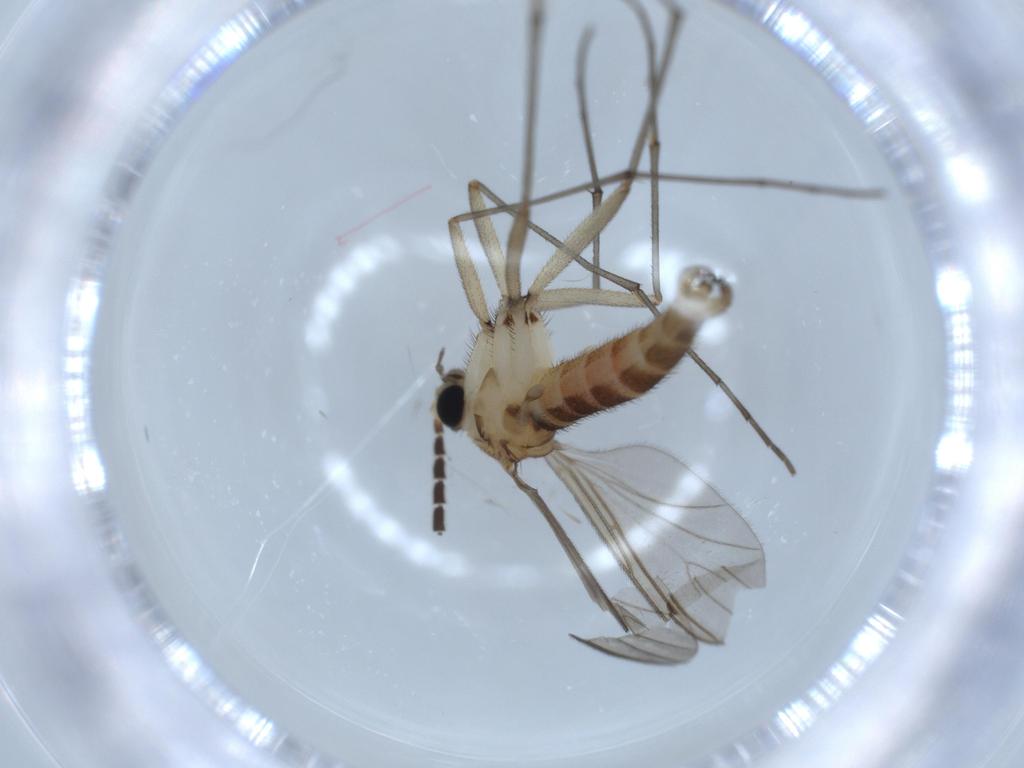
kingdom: Animalia
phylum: Arthropoda
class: Insecta
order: Diptera
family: Sciaridae
